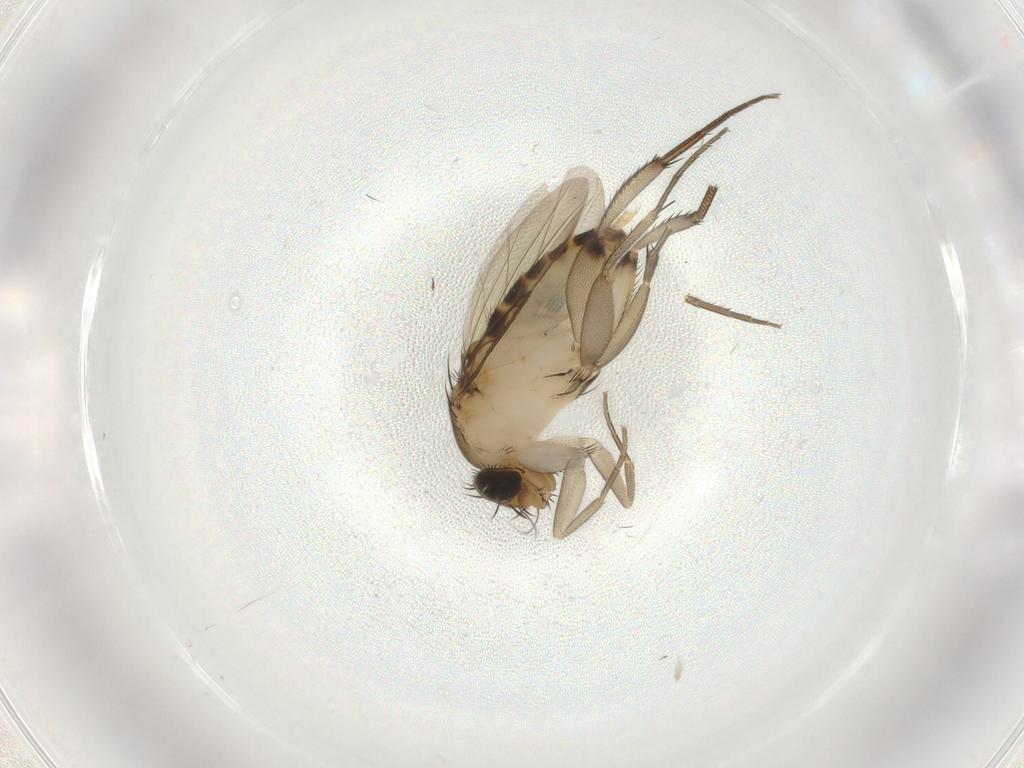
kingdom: Animalia
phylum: Arthropoda
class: Insecta
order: Diptera
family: Phoridae
